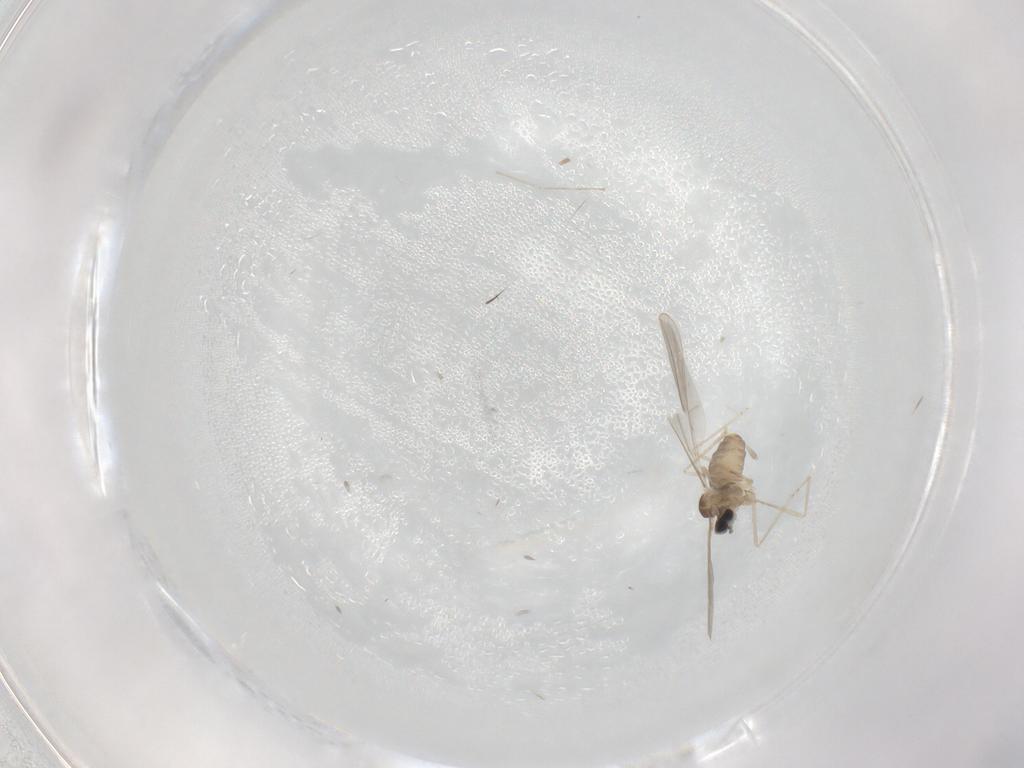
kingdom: Animalia
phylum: Arthropoda
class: Insecta
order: Diptera
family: Cecidomyiidae
